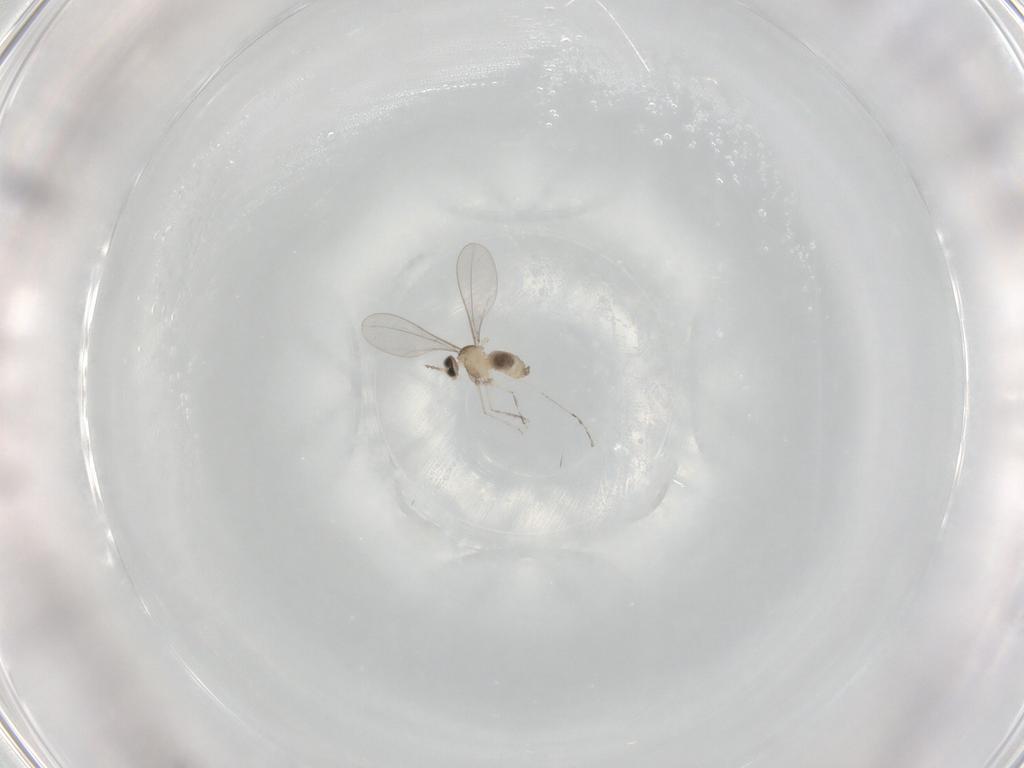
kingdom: Animalia
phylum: Arthropoda
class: Insecta
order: Diptera
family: Cecidomyiidae
